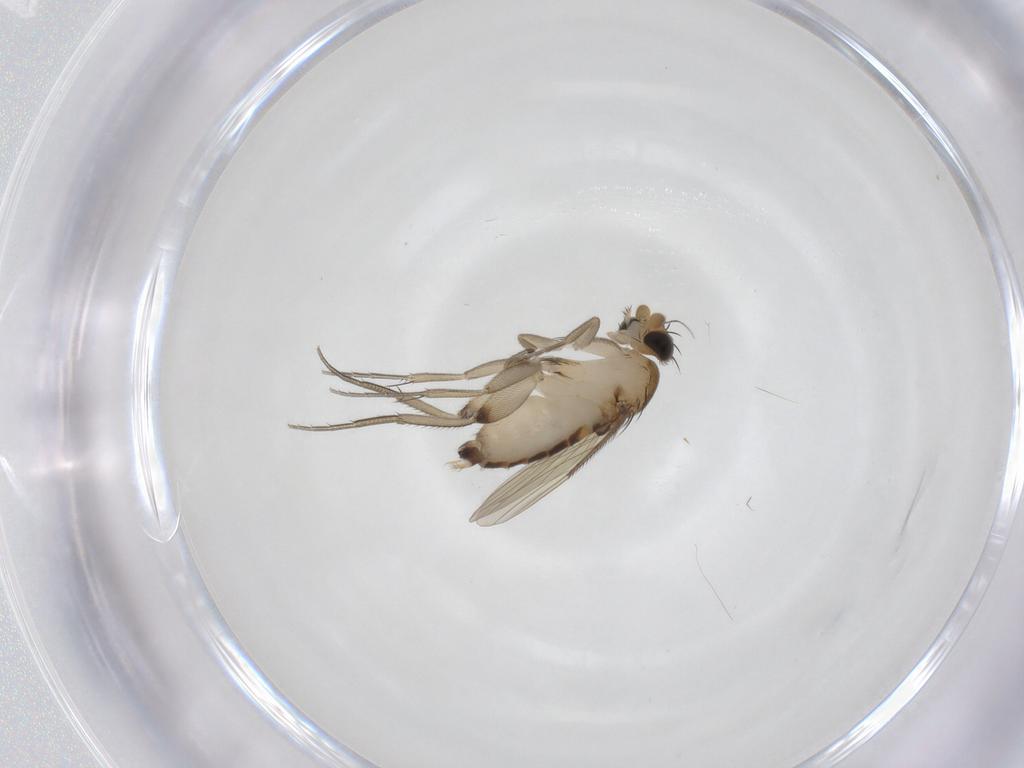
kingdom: Animalia
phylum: Arthropoda
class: Insecta
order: Diptera
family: Phoridae
